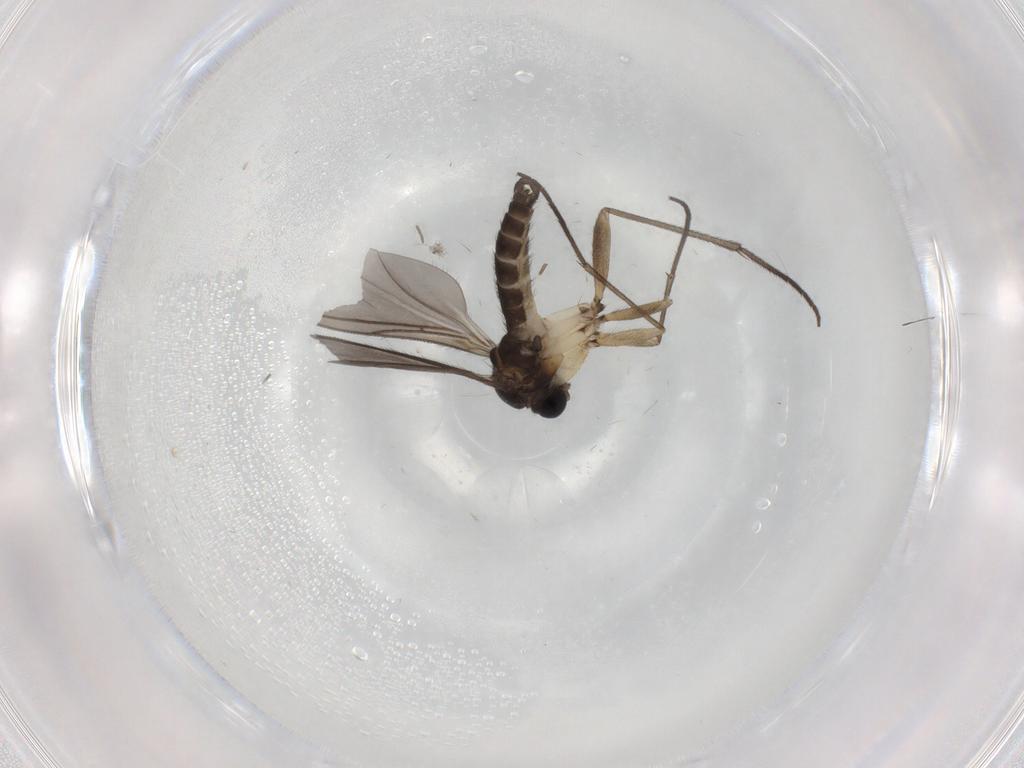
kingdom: Animalia
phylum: Arthropoda
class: Insecta
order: Diptera
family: Sciaridae
